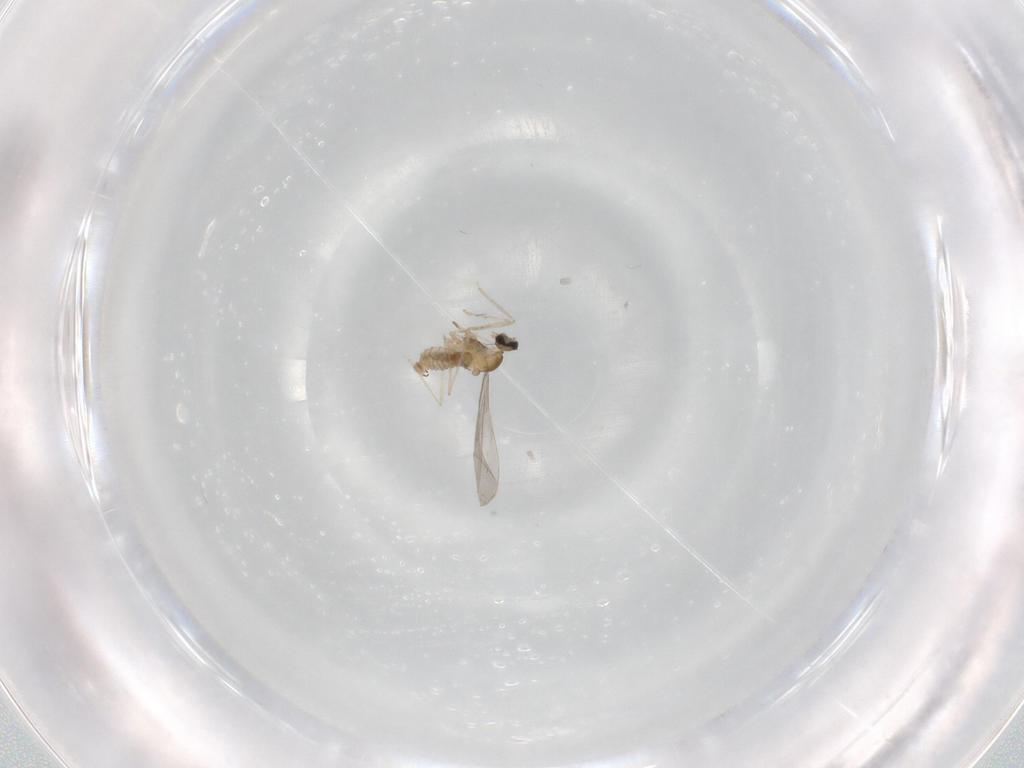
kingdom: Animalia
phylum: Arthropoda
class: Insecta
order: Diptera
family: Cecidomyiidae
